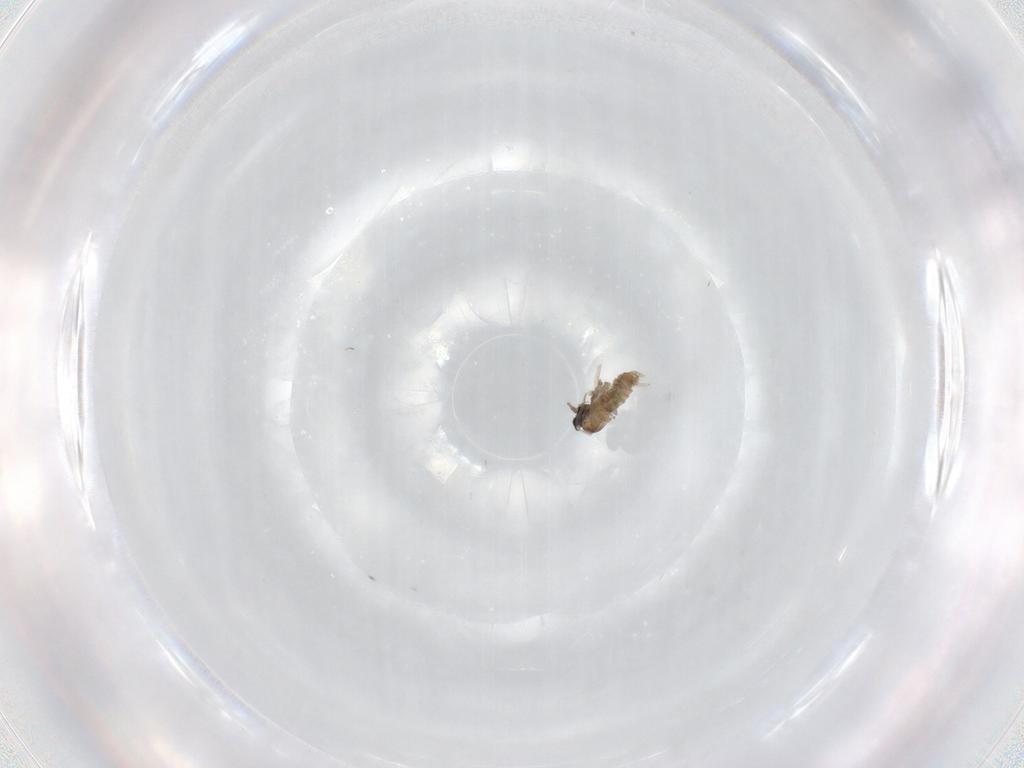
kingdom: Animalia
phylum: Arthropoda
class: Insecta
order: Diptera
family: Cecidomyiidae
